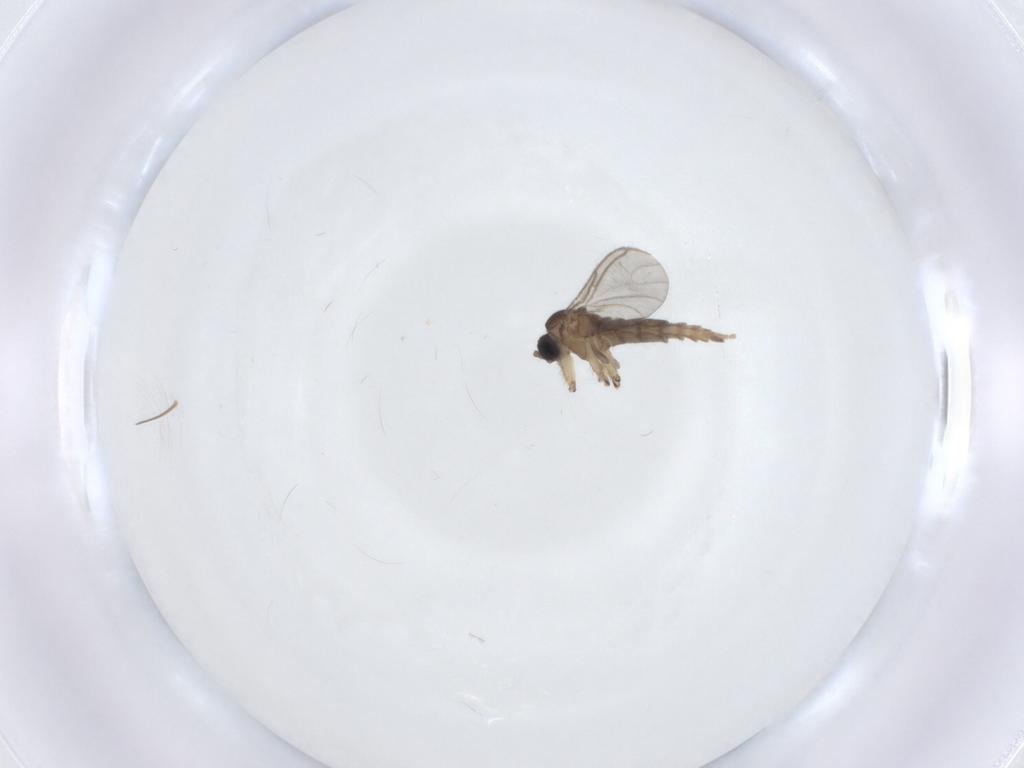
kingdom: Animalia
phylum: Arthropoda
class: Insecta
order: Diptera
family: Sciaridae
